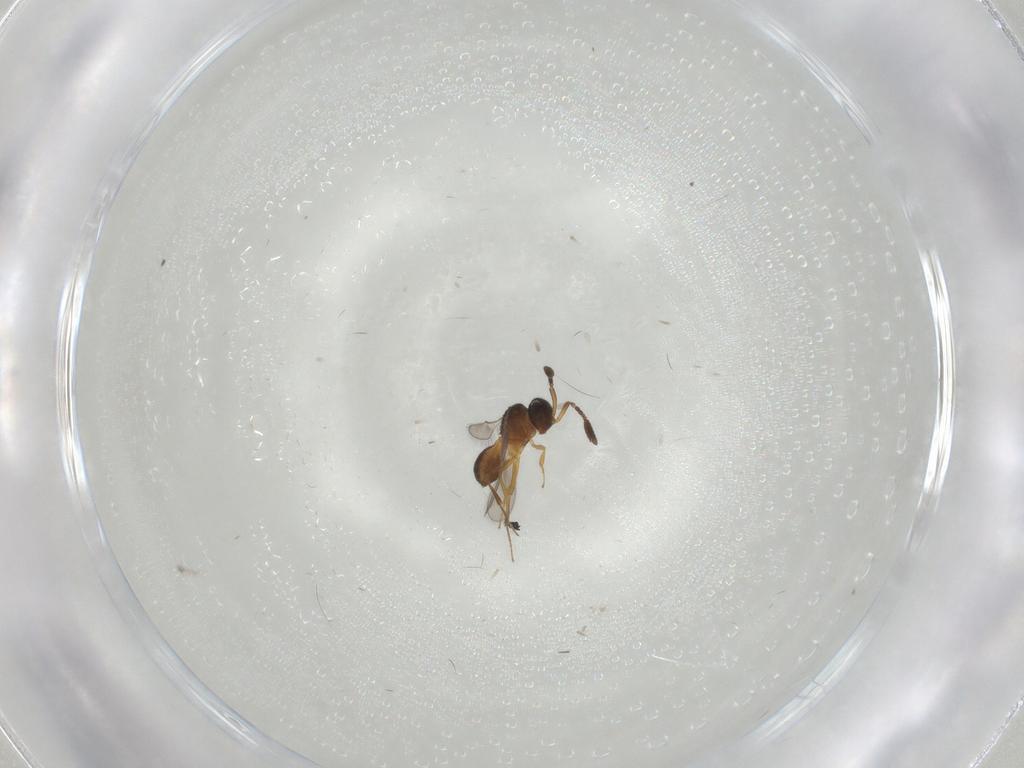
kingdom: Animalia
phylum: Arthropoda
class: Insecta
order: Hymenoptera
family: Scelionidae
